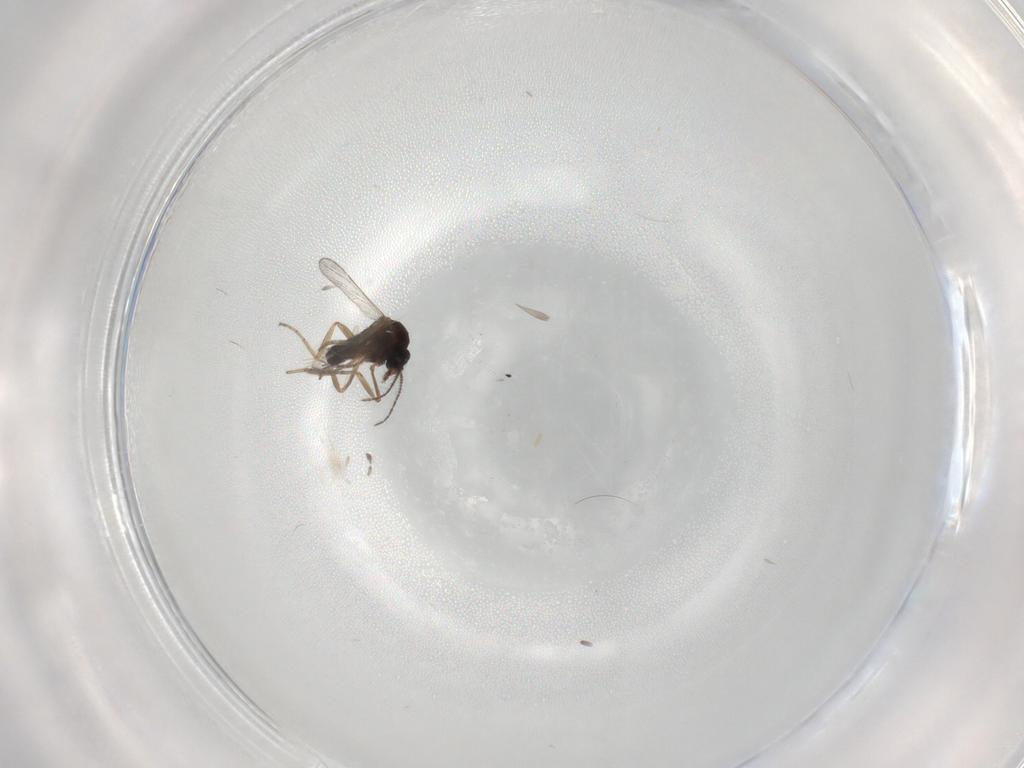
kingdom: Animalia
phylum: Arthropoda
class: Insecta
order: Diptera
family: Ceratopogonidae
